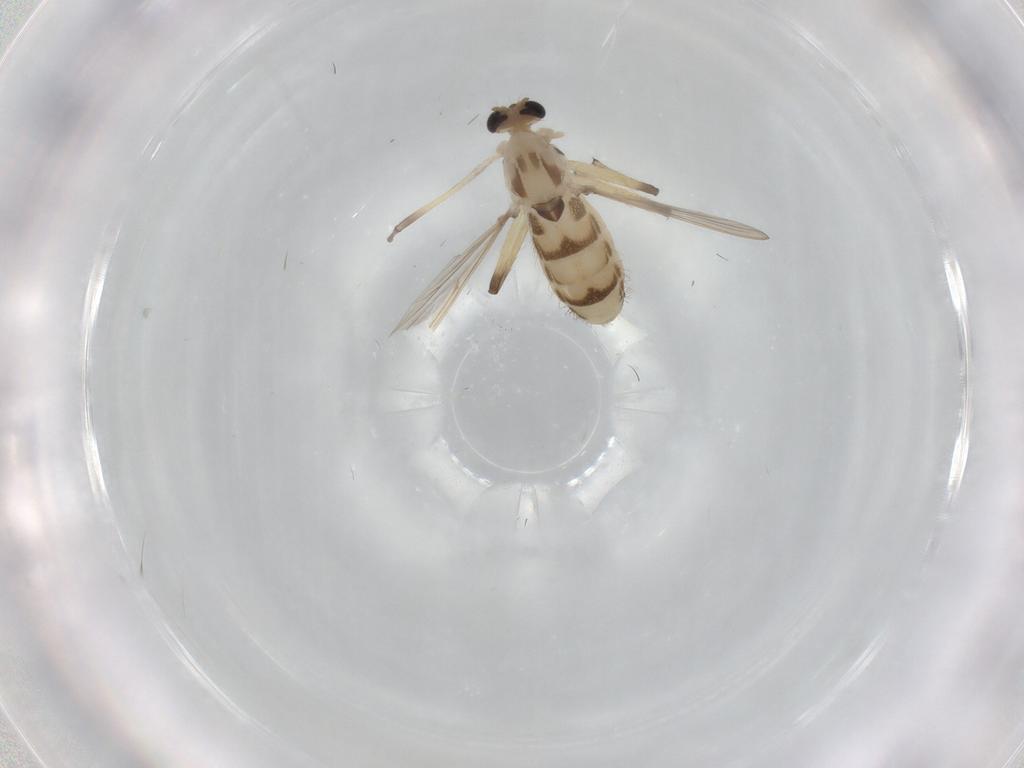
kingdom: Animalia
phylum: Arthropoda
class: Insecta
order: Diptera
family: Chironomidae
